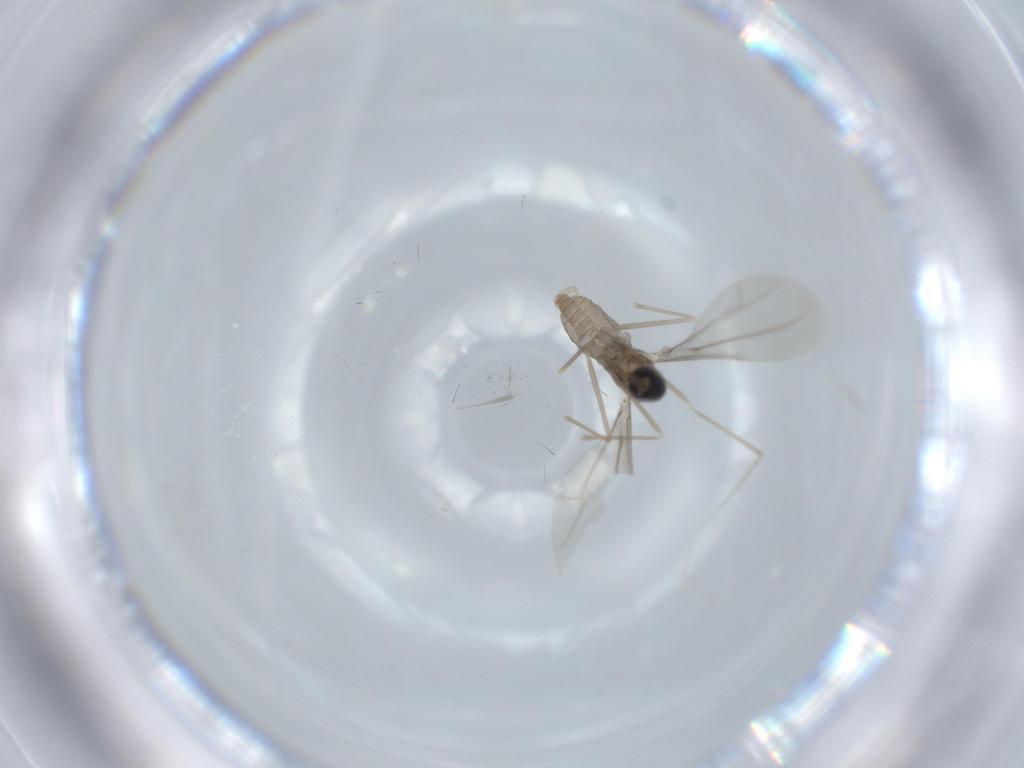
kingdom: Animalia
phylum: Arthropoda
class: Insecta
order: Diptera
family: Cecidomyiidae
